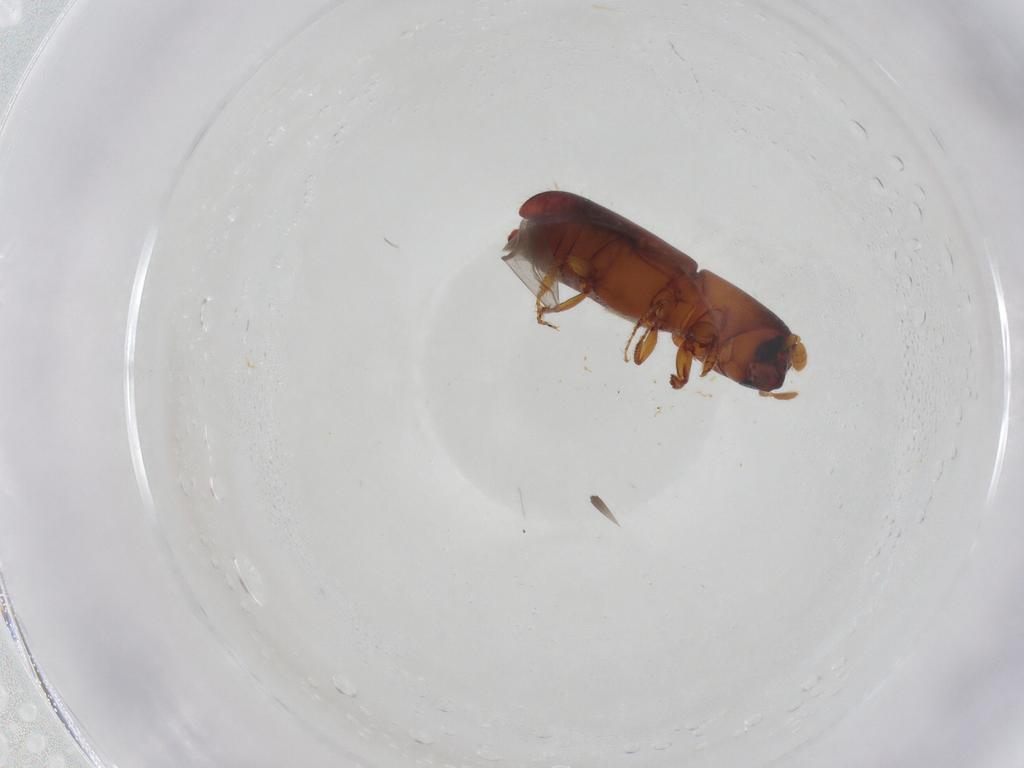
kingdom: Animalia
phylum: Arthropoda
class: Insecta
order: Coleoptera
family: Curculionidae
